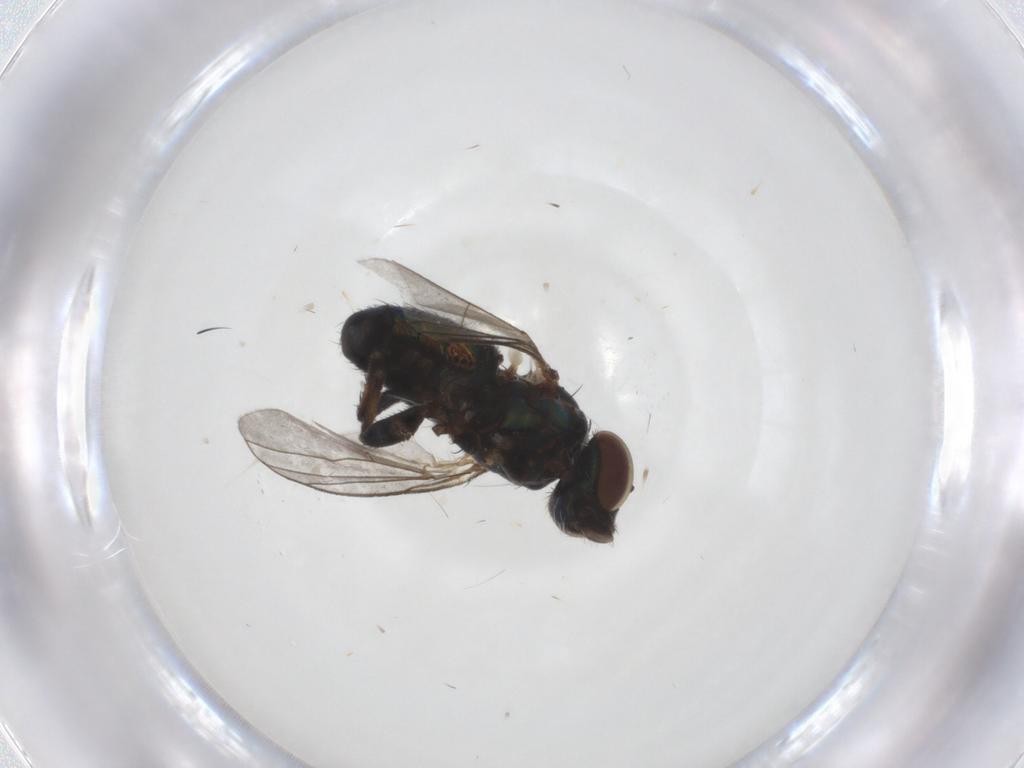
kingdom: Animalia
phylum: Arthropoda
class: Insecta
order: Diptera
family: Dolichopodidae
